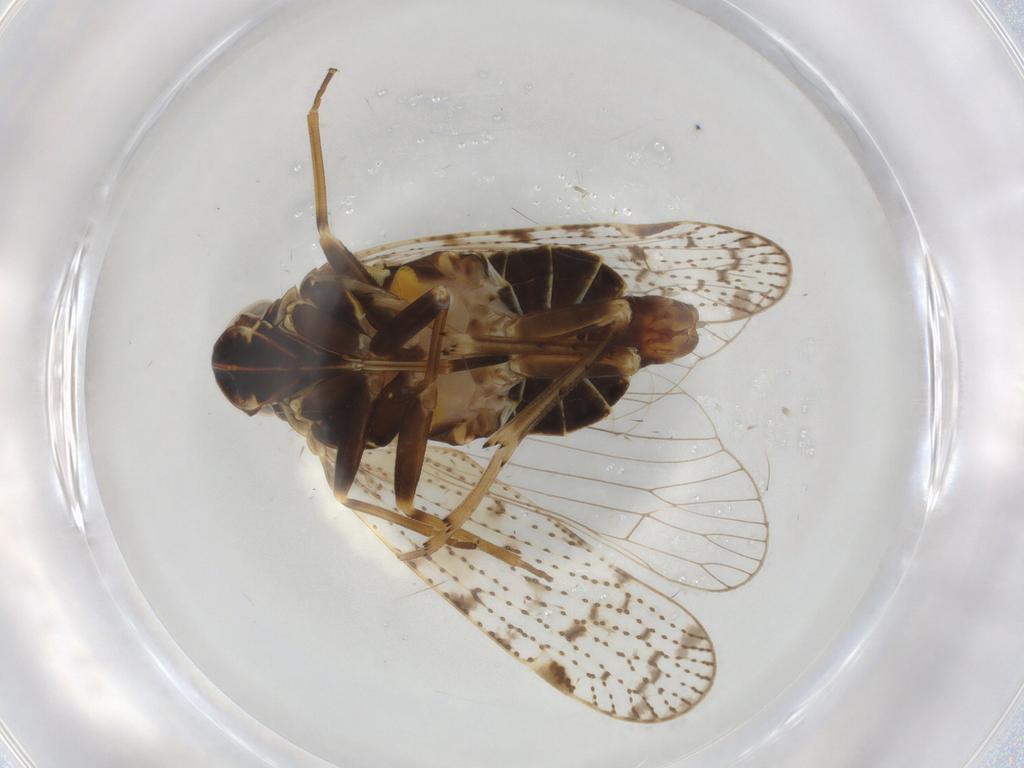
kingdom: Animalia
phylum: Arthropoda
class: Insecta
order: Hemiptera
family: Cixiidae
